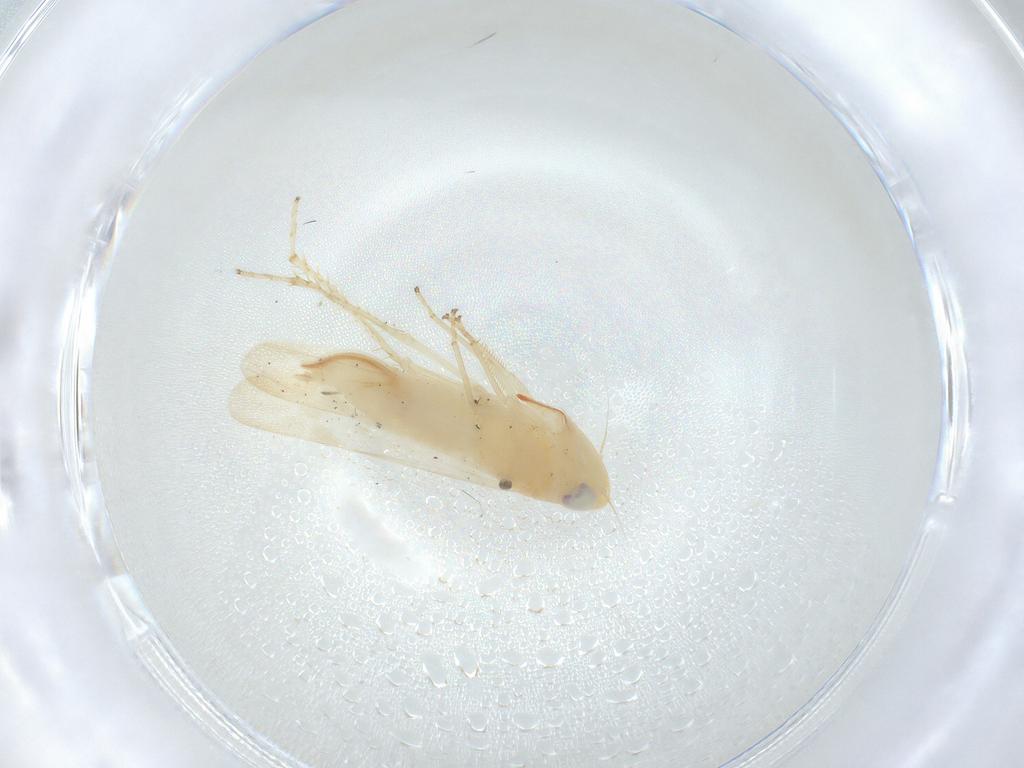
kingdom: Animalia
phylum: Arthropoda
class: Insecta
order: Hemiptera
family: Cicadellidae
